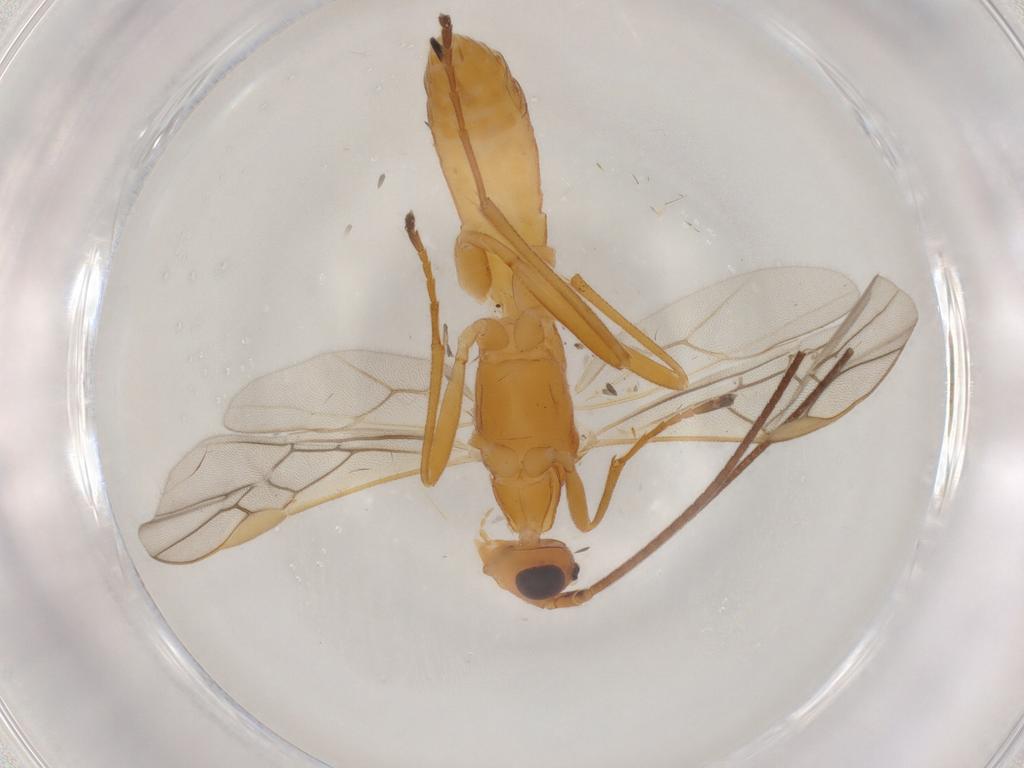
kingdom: Animalia
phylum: Arthropoda
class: Insecta
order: Hymenoptera
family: Braconidae
